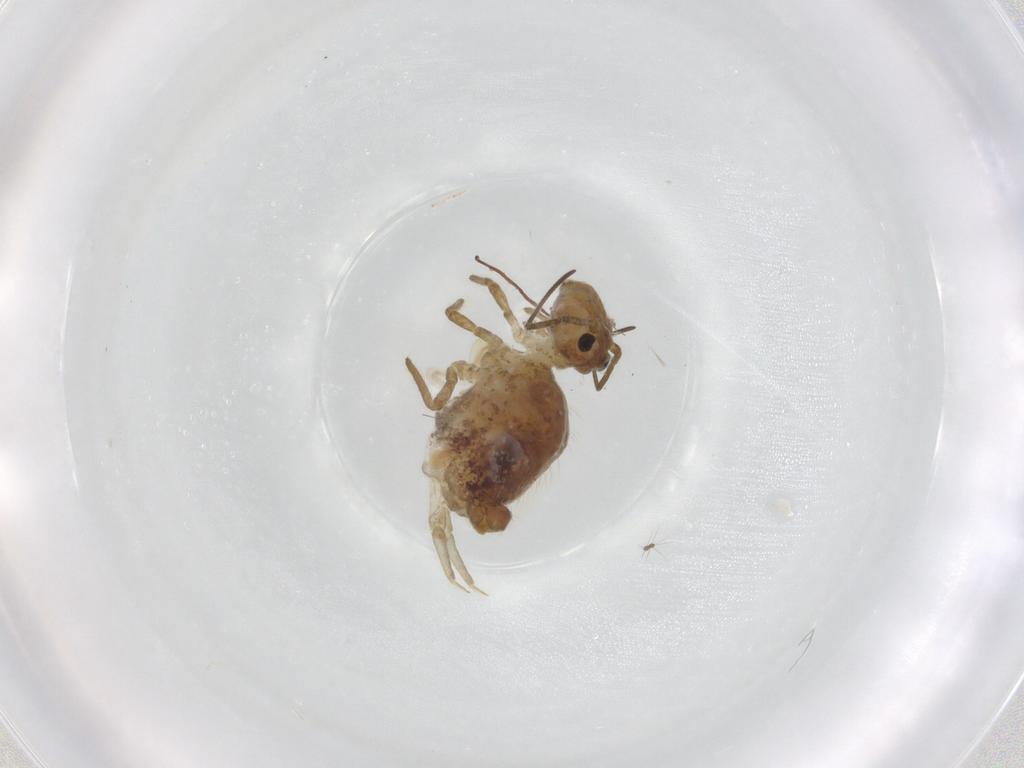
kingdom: Animalia
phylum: Arthropoda
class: Collembola
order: Symphypleona
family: Sminthuridae
